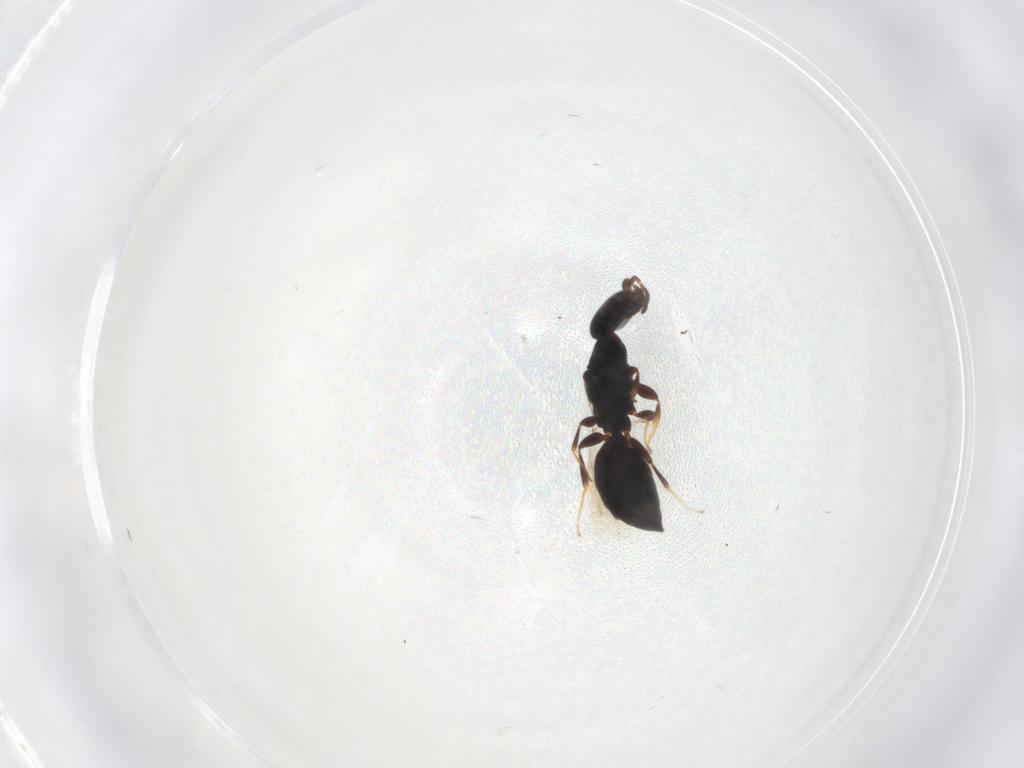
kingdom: Animalia
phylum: Arthropoda
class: Insecta
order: Hymenoptera
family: Bethylidae
